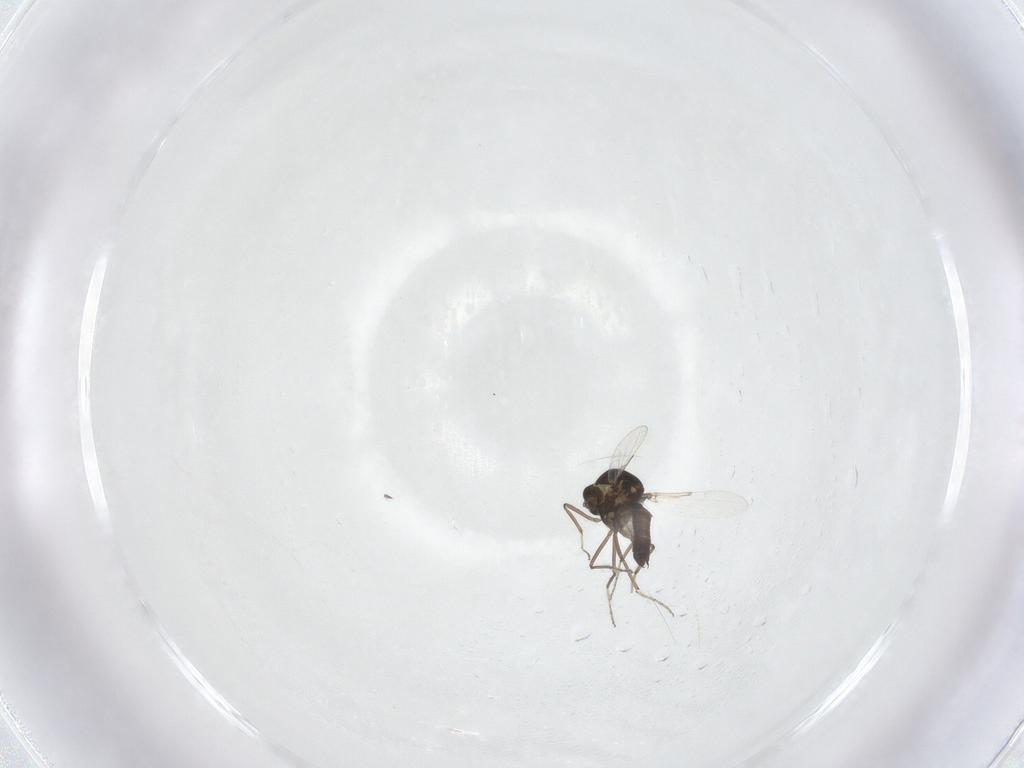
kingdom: Animalia
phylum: Arthropoda
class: Insecta
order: Diptera
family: Ceratopogonidae
